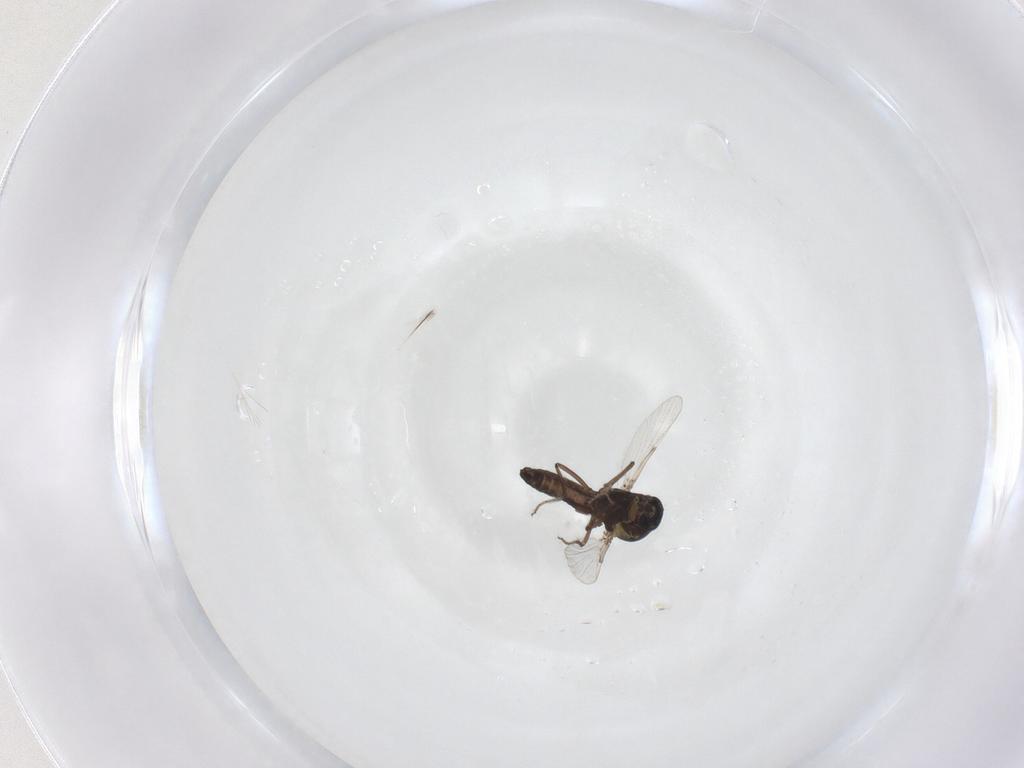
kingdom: Animalia
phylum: Arthropoda
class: Insecta
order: Diptera
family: Ceratopogonidae
